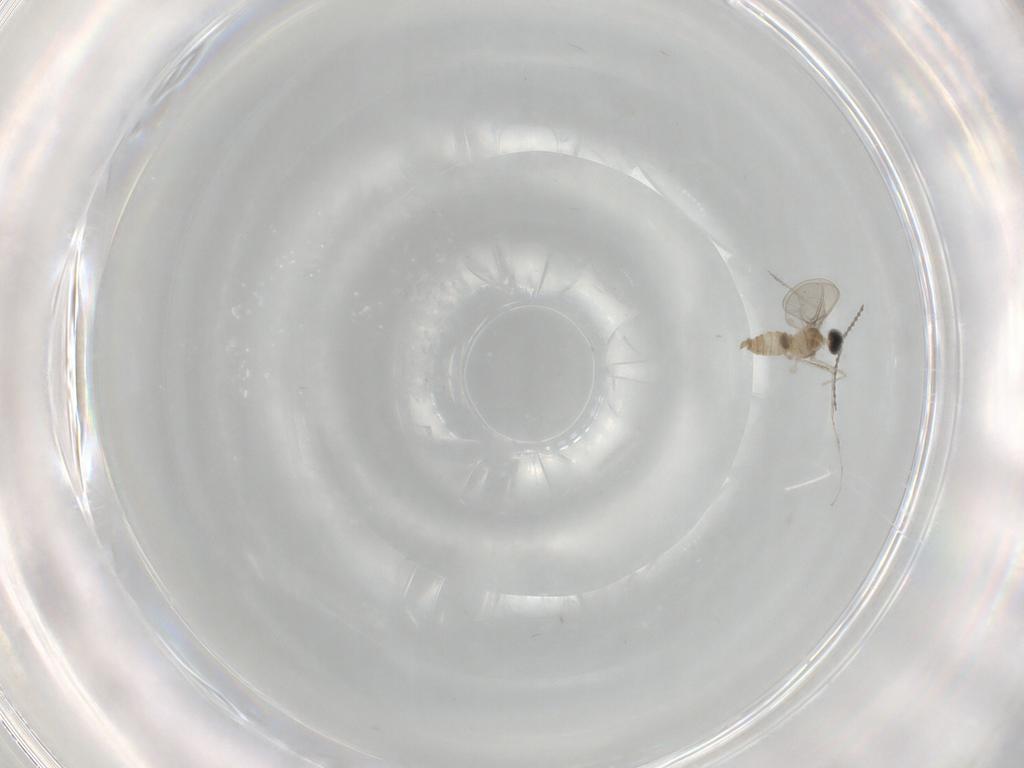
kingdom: Animalia
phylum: Arthropoda
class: Insecta
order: Diptera
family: Cecidomyiidae
